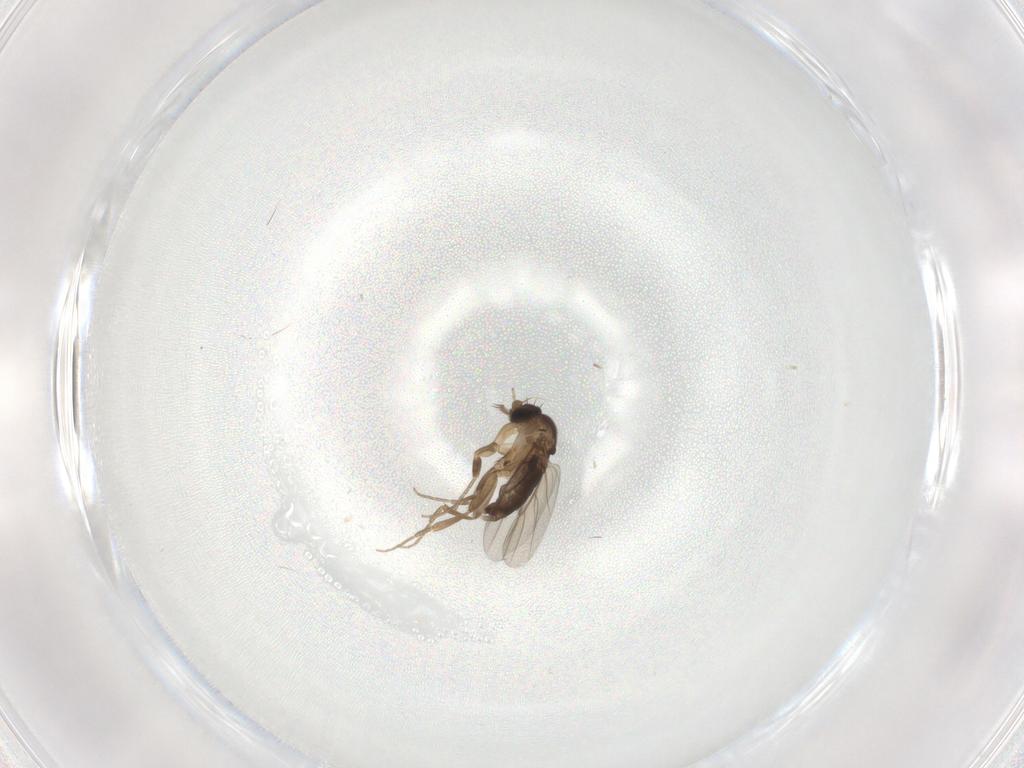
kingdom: Animalia
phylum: Arthropoda
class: Insecta
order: Diptera
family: Phoridae
